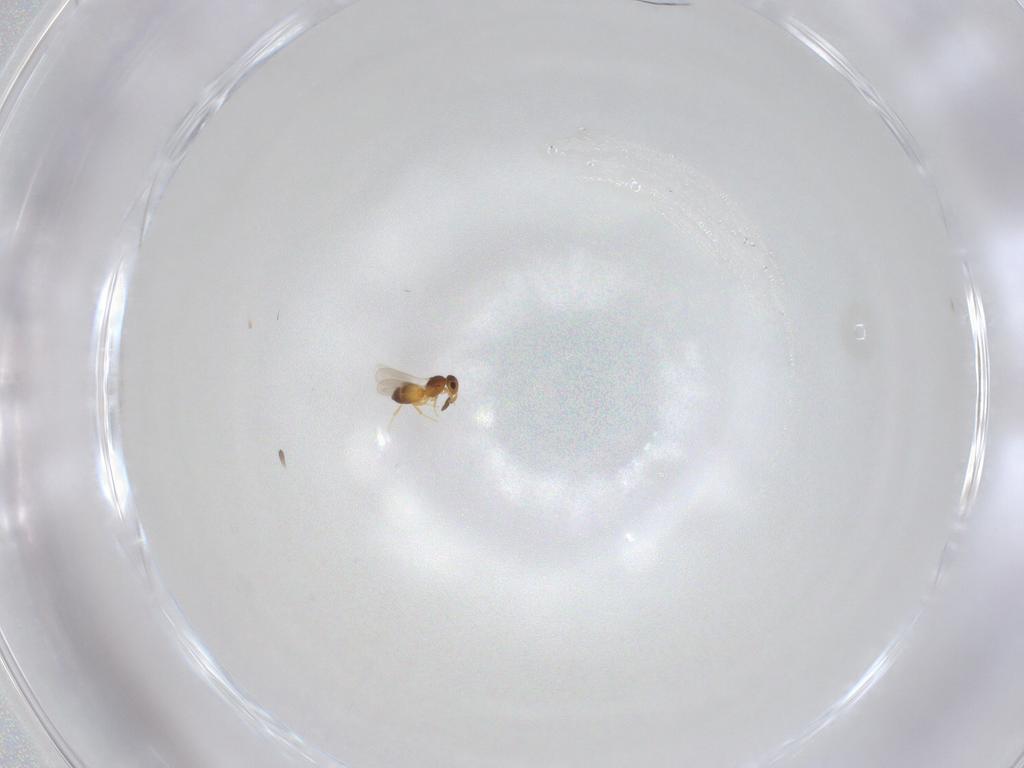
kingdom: Animalia
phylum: Arthropoda
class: Insecta
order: Hymenoptera
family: Platygastridae
